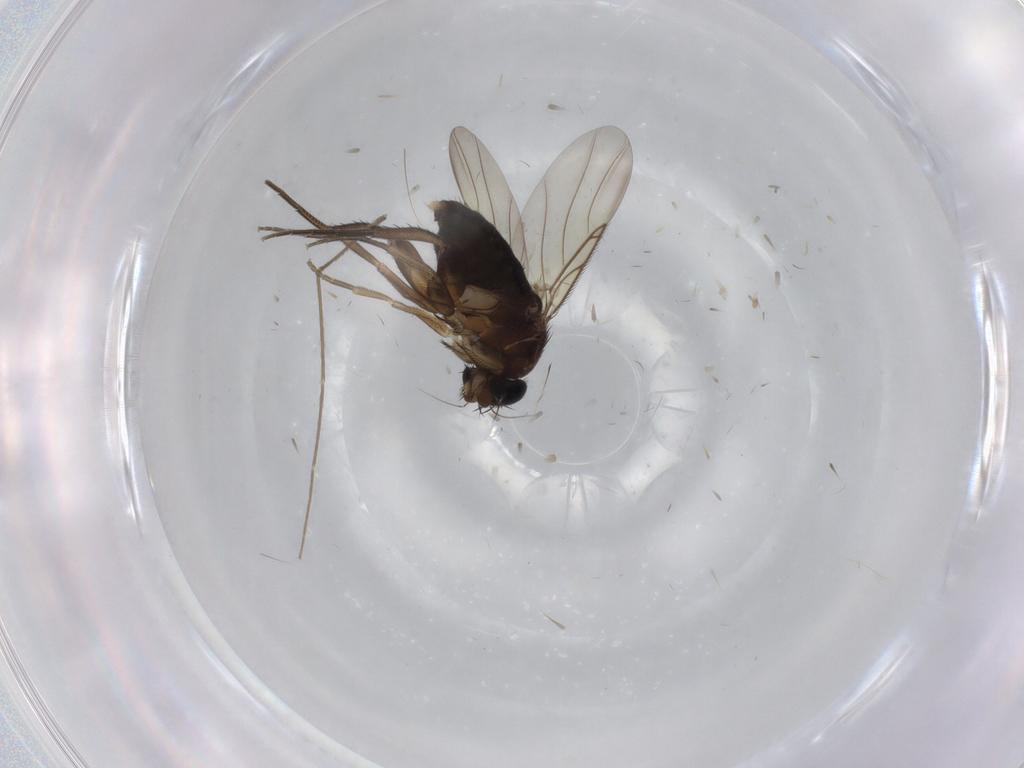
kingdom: Animalia
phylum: Arthropoda
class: Insecta
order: Diptera
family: Phoridae
